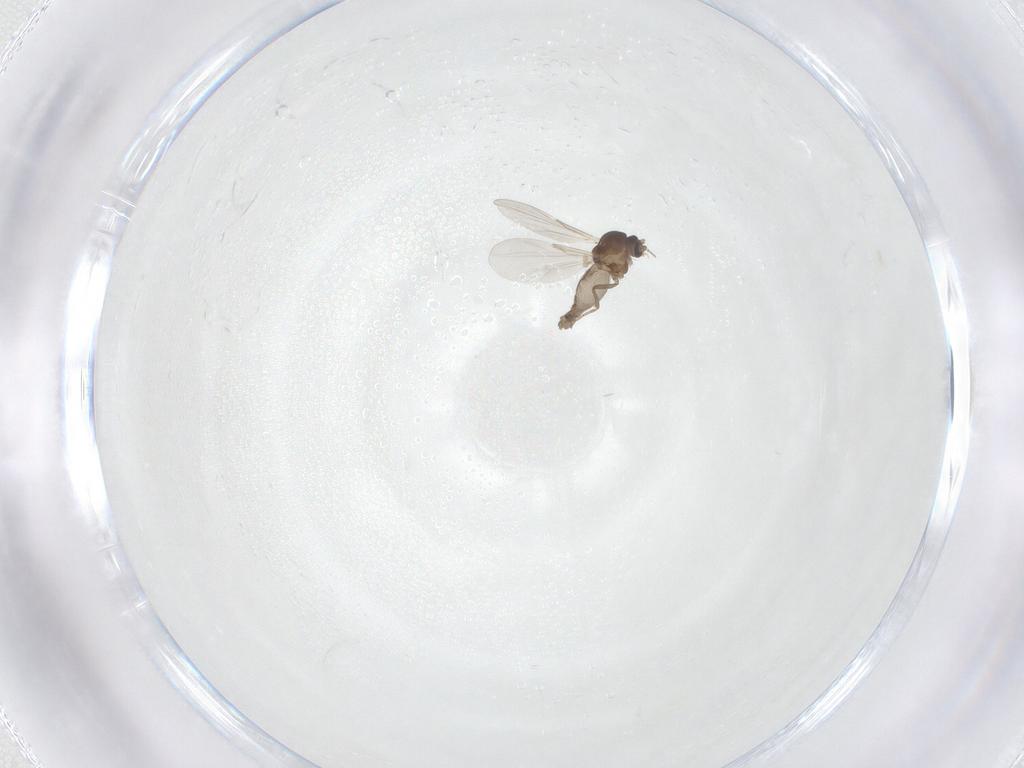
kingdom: Animalia
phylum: Arthropoda
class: Insecta
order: Diptera
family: Ceratopogonidae
